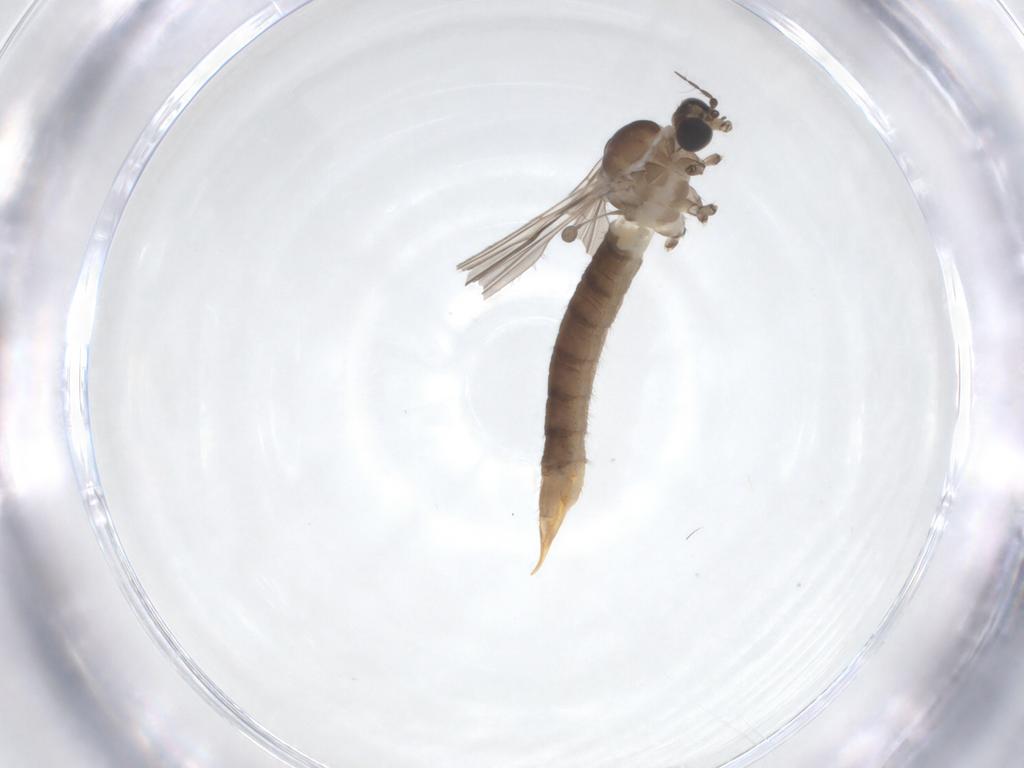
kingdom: Animalia
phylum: Arthropoda
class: Insecta
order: Diptera
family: Limoniidae
